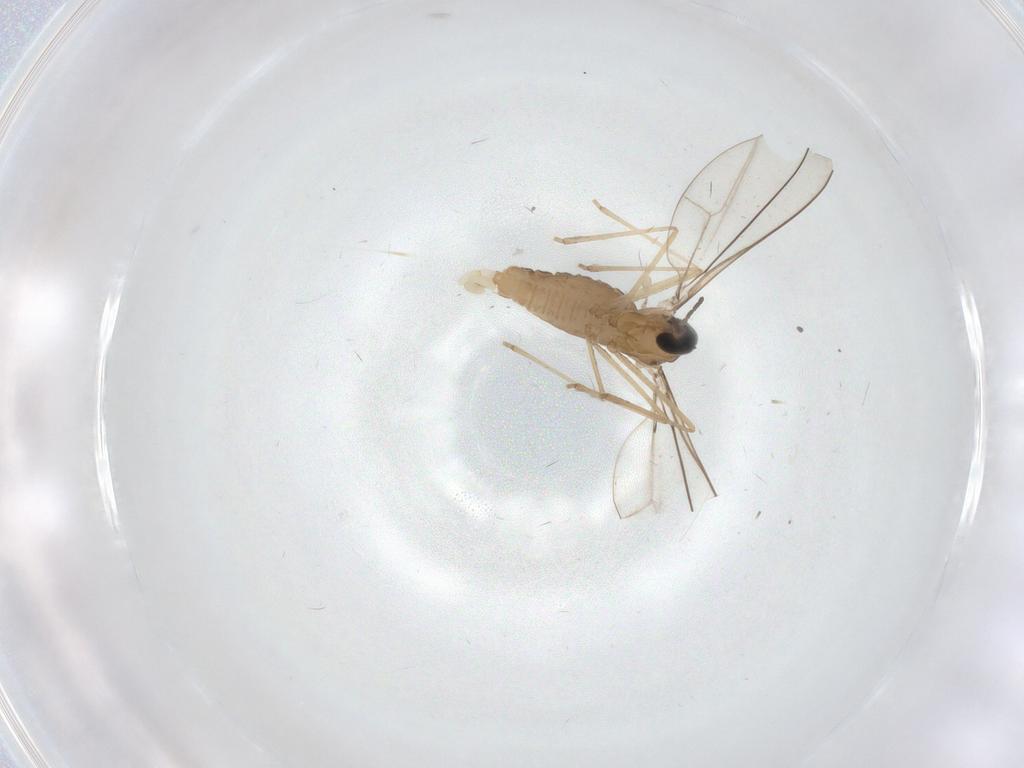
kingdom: Animalia
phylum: Arthropoda
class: Insecta
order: Diptera
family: Cecidomyiidae
